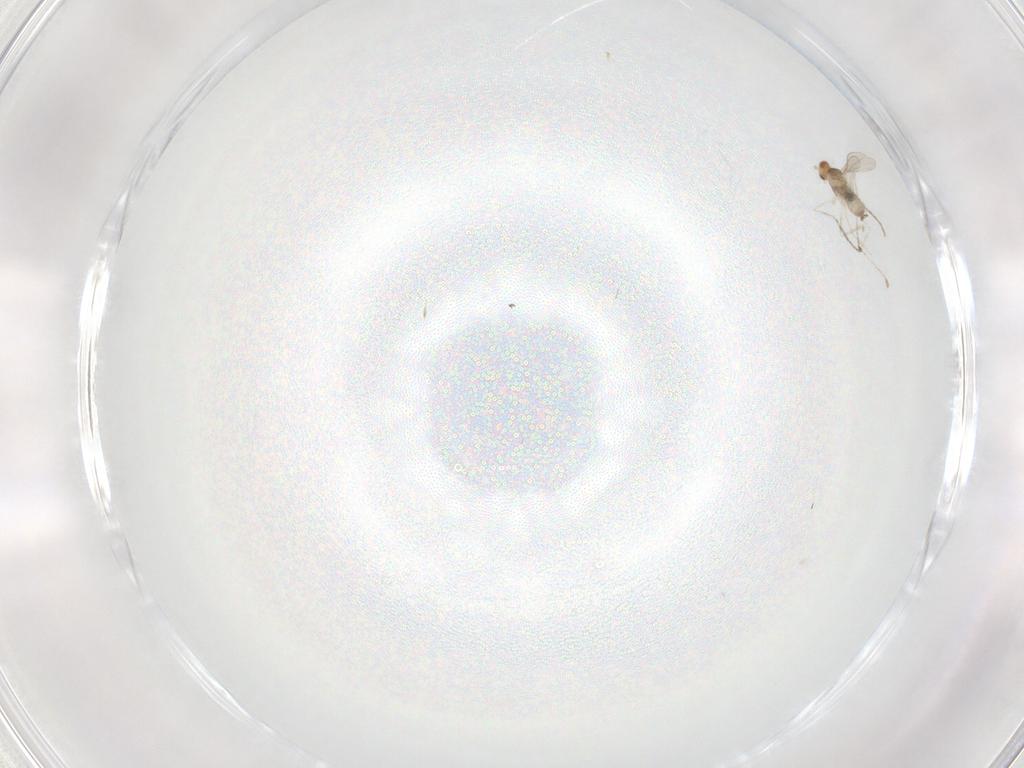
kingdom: Animalia
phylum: Arthropoda
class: Insecta
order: Diptera
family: Cecidomyiidae
